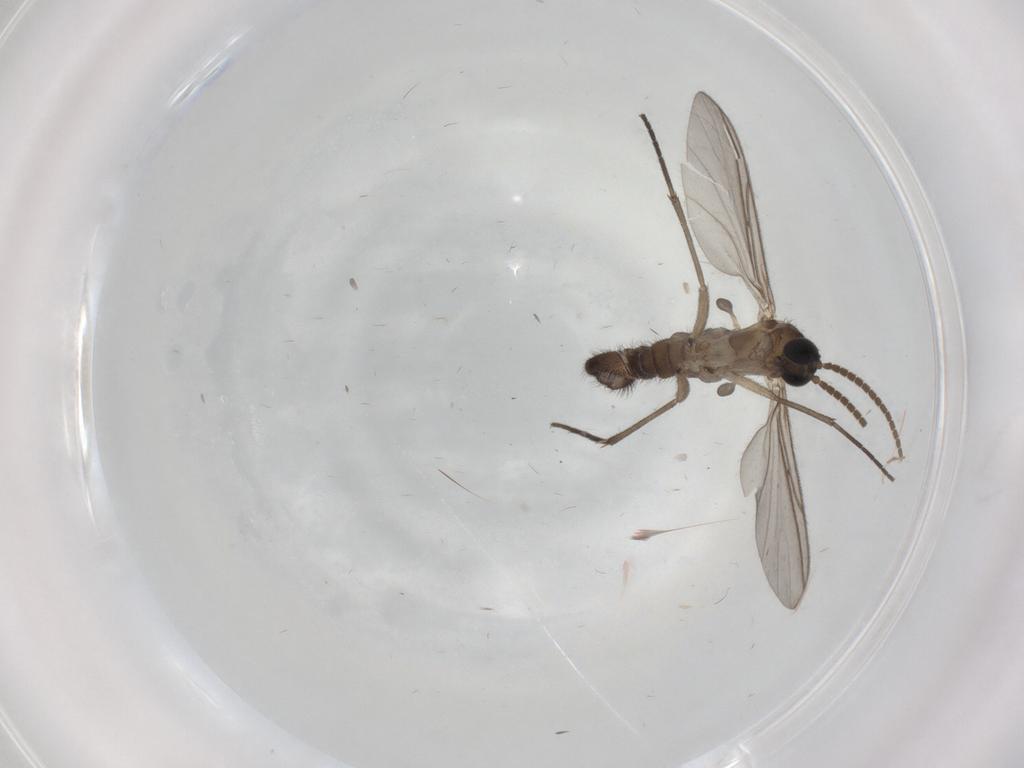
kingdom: Animalia
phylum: Arthropoda
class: Insecta
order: Diptera
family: Sciaridae
